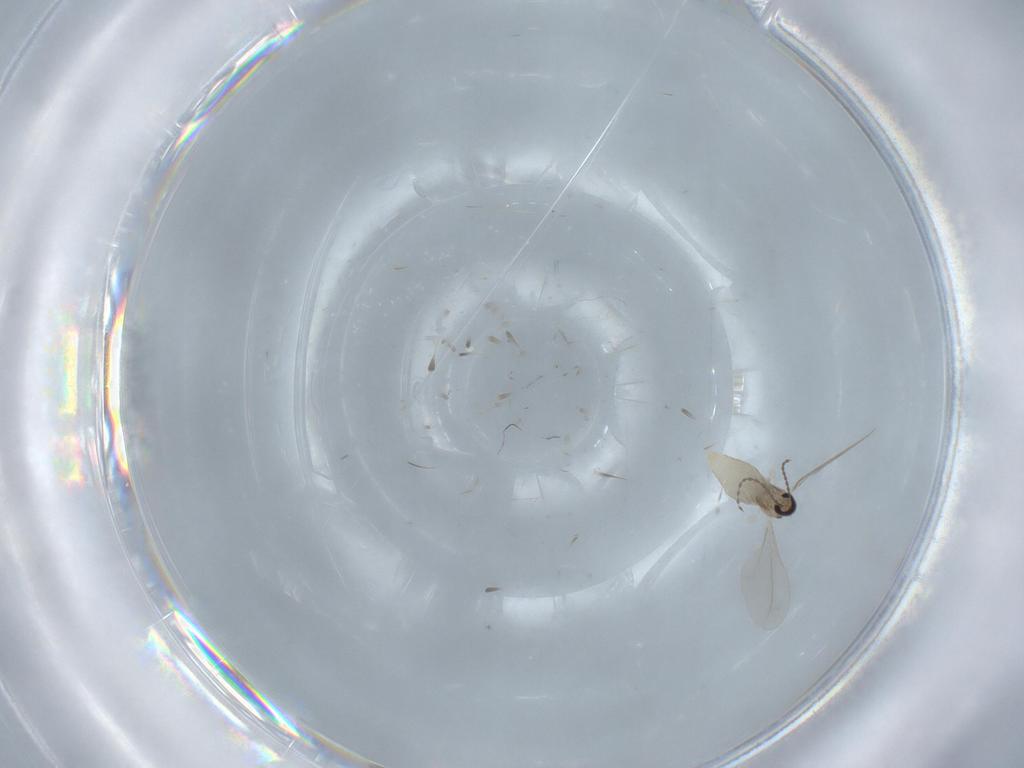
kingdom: Animalia
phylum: Arthropoda
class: Insecta
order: Diptera
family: Cecidomyiidae
